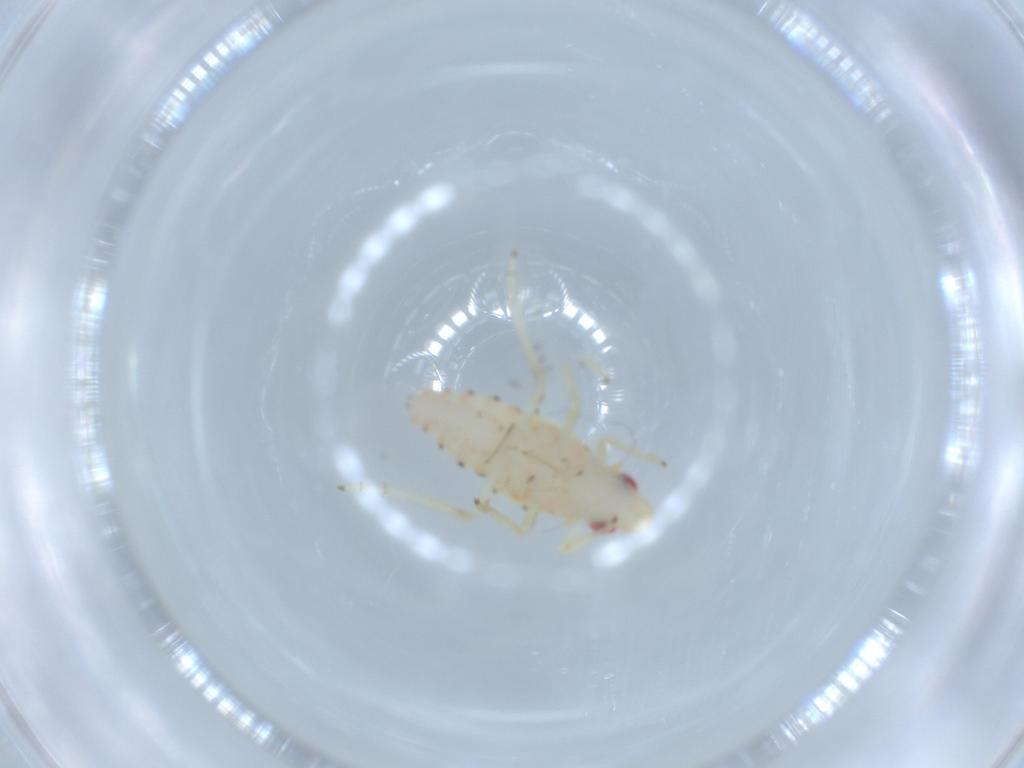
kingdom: Animalia
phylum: Arthropoda
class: Insecta
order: Hemiptera
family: Tropiduchidae
